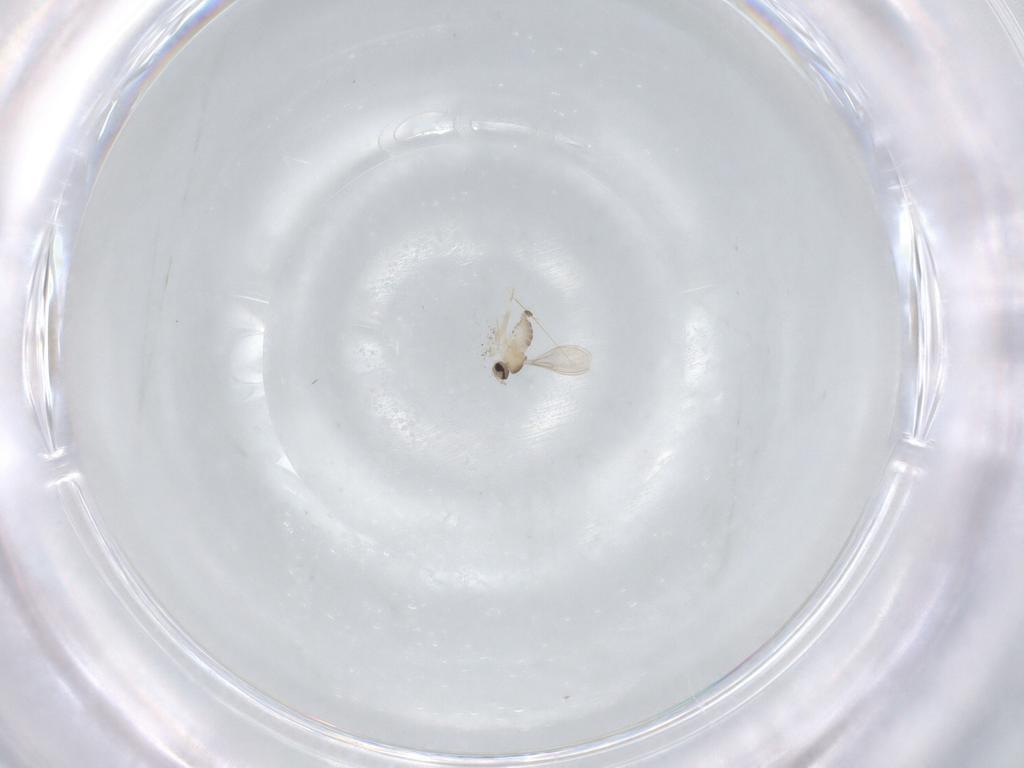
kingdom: Animalia
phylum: Arthropoda
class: Insecta
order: Diptera
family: Cecidomyiidae
